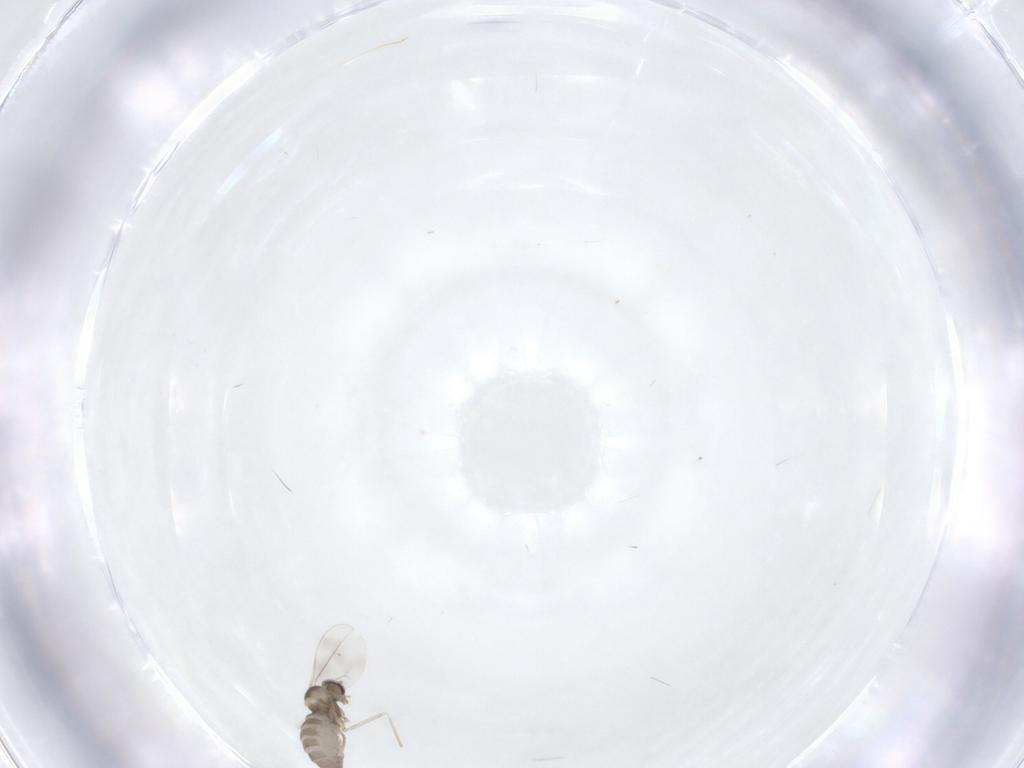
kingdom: Animalia
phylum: Arthropoda
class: Insecta
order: Diptera
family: Cecidomyiidae
